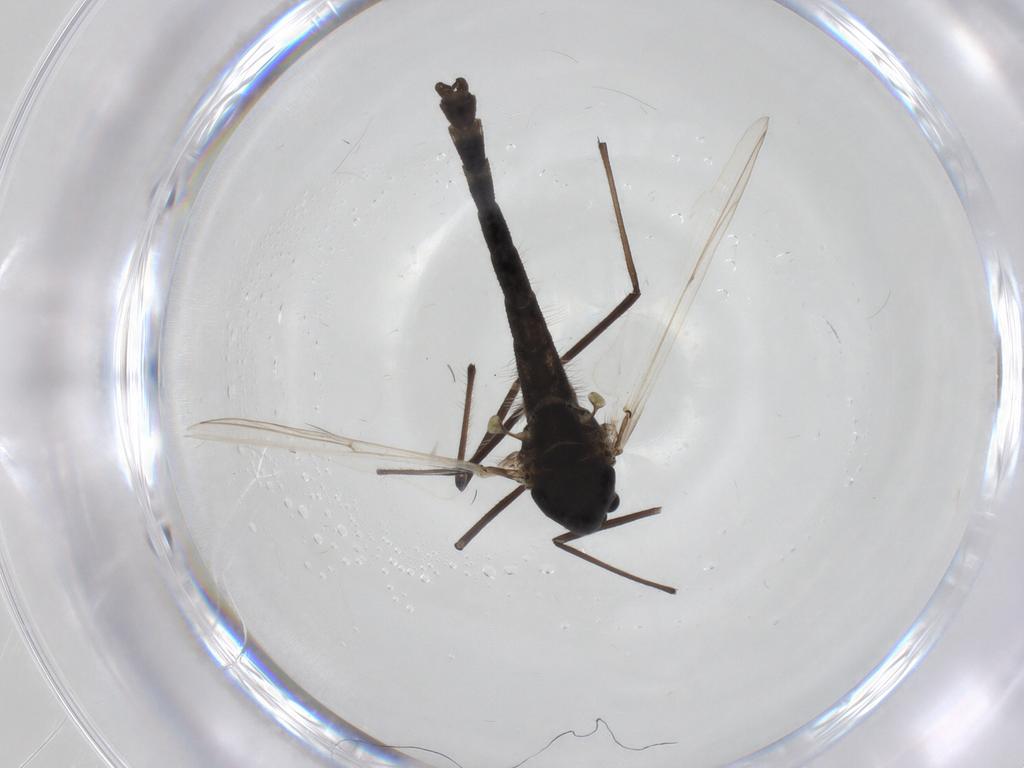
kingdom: Animalia
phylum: Arthropoda
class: Insecta
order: Diptera
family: Chironomidae
